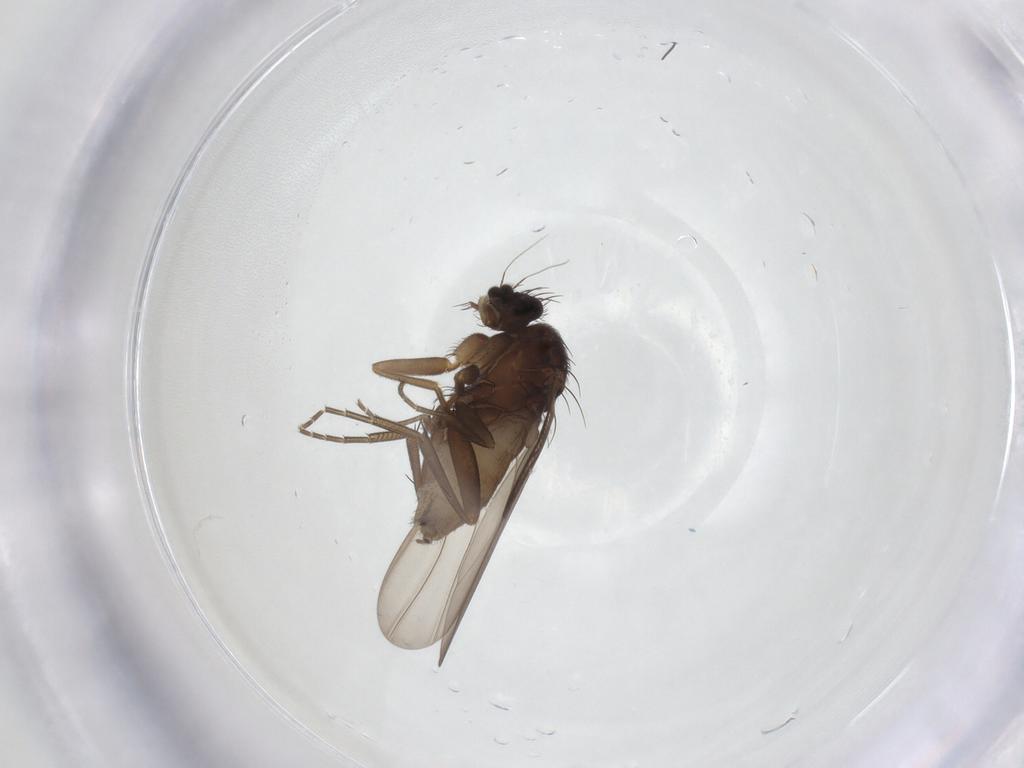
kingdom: Animalia
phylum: Arthropoda
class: Insecta
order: Diptera
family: Phoridae
